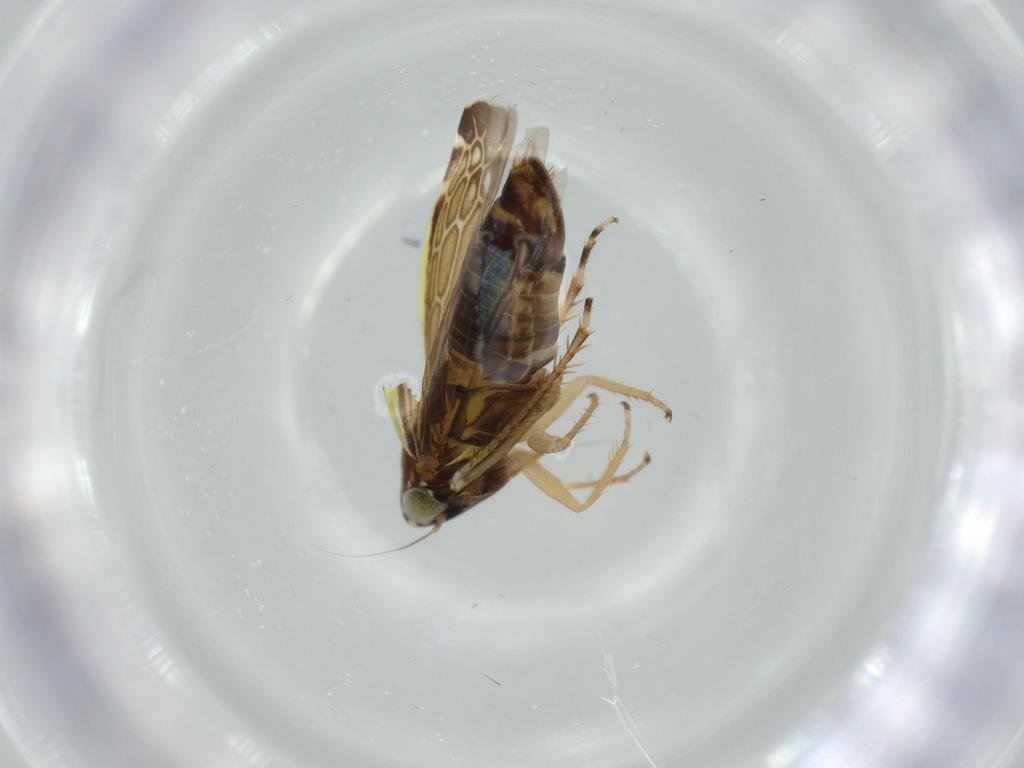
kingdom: Animalia
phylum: Arthropoda
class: Insecta
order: Hemiptera
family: Cicadellidae
